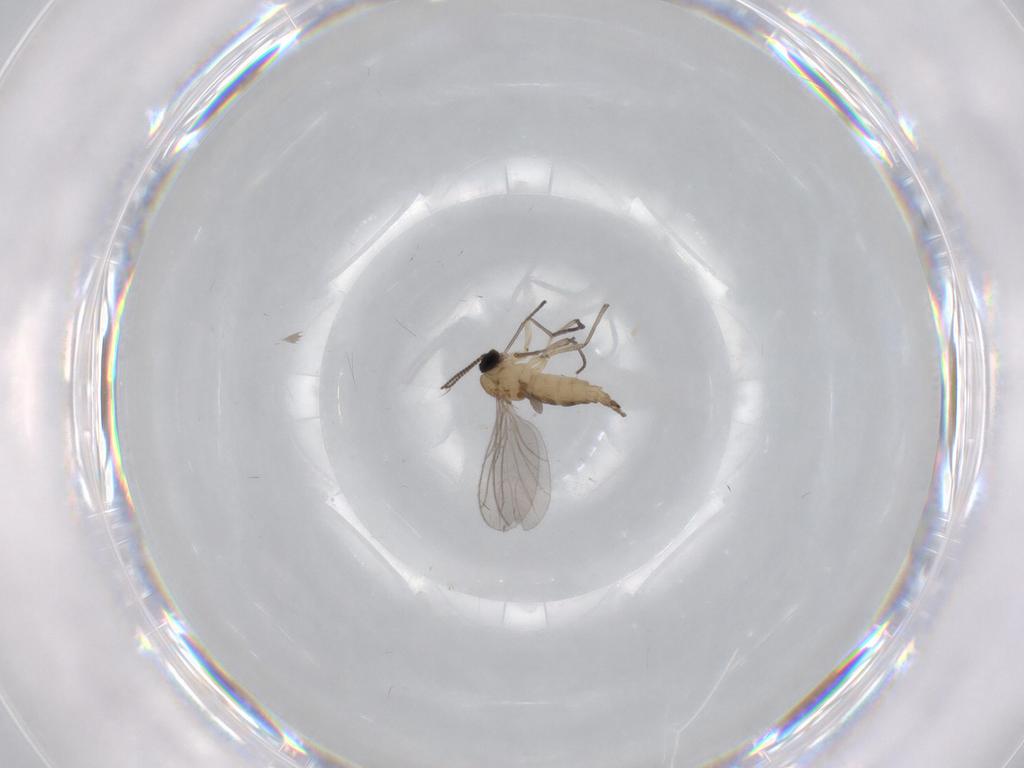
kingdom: Animalia
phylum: Arthropoda
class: Insecta
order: Diptera
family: Sciaridae
